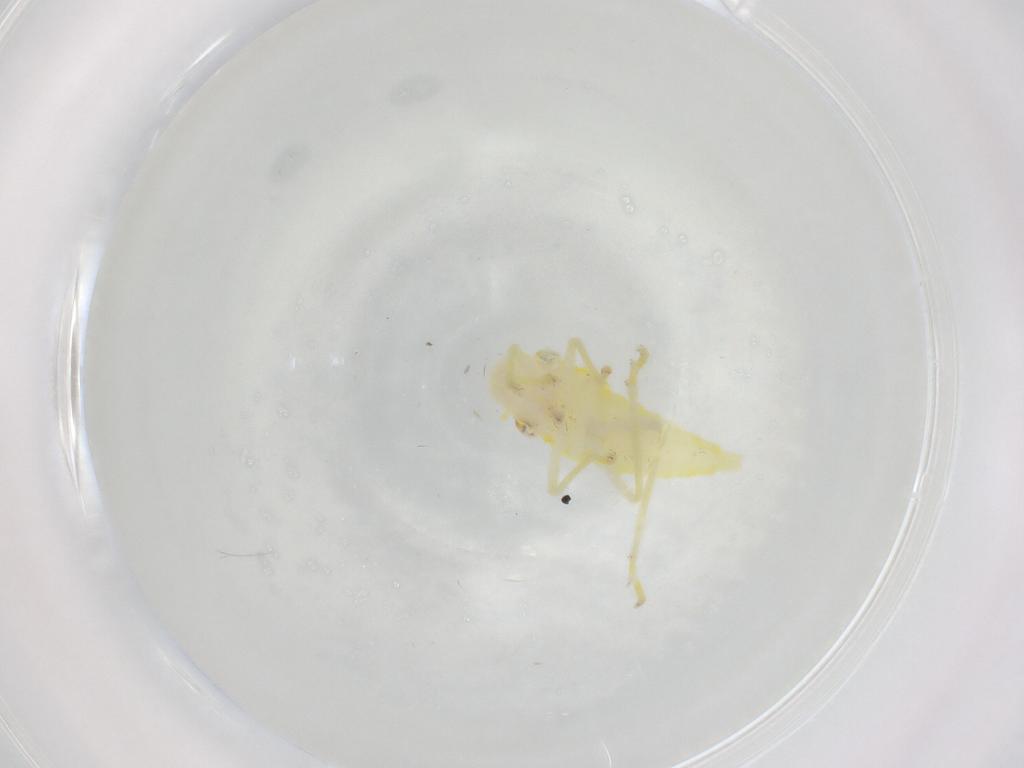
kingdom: Animalia
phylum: Arthropoda
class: Insecta
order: Hemiptera
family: Cicadellidae
